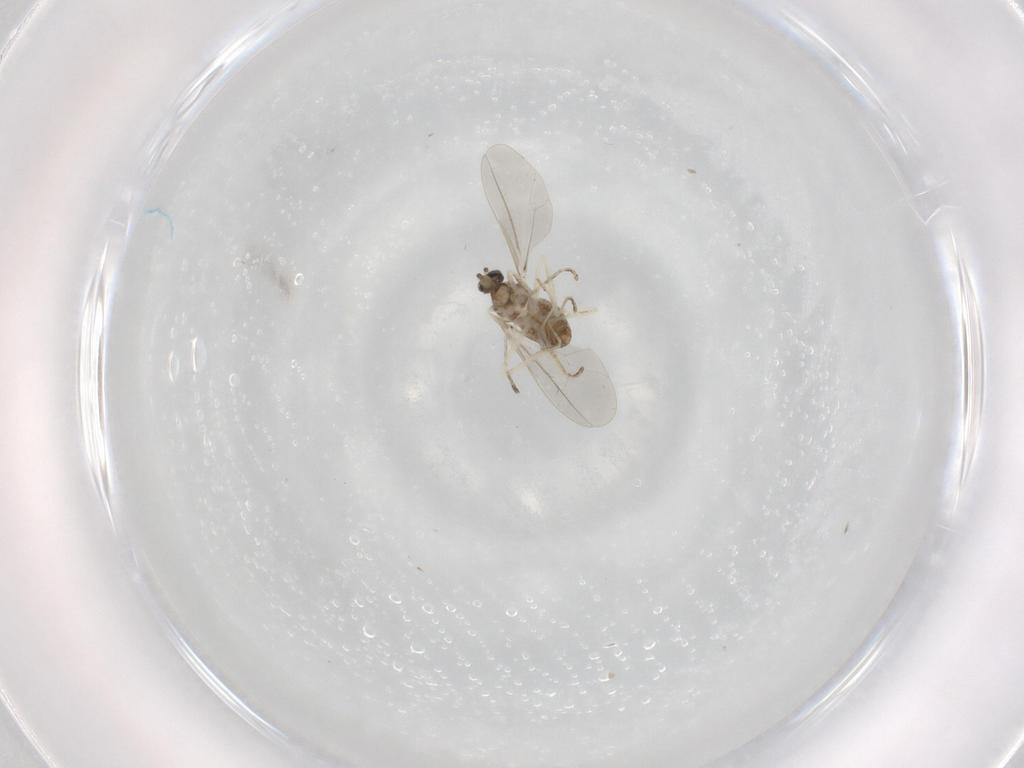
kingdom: Animalia
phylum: Arthropoda
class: Insecta
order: Diptera
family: Cecidomyiidae
